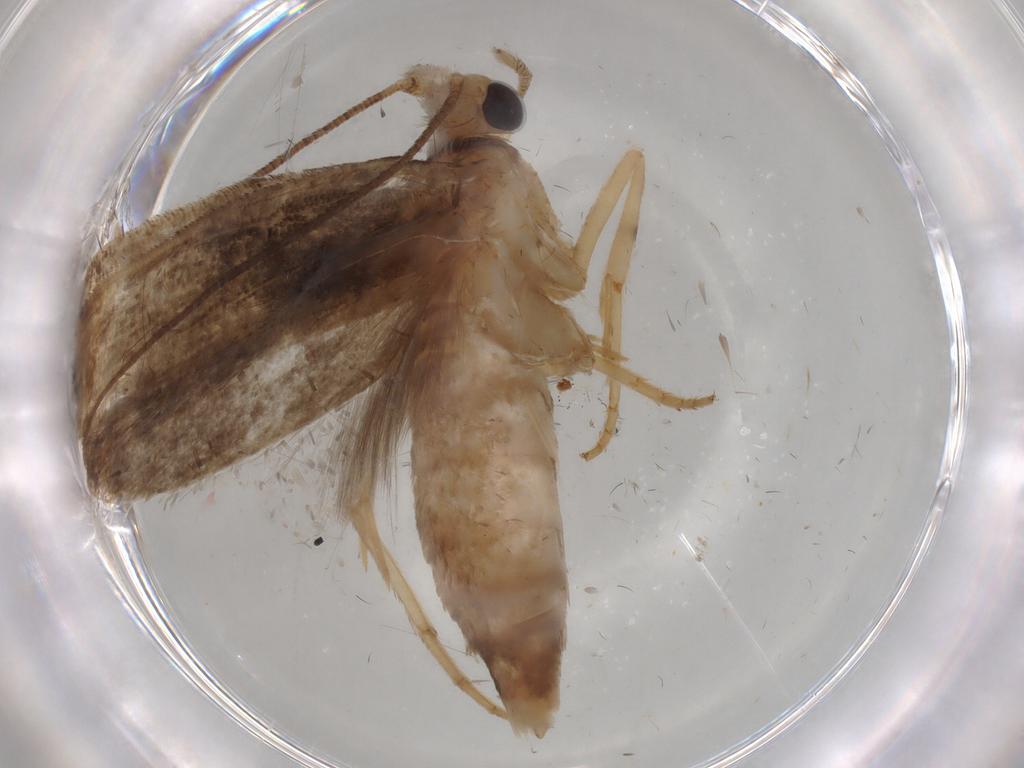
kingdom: Animalia
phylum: Arthropoda
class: Insecta
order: Lepidoptera
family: Yponomeutidae
